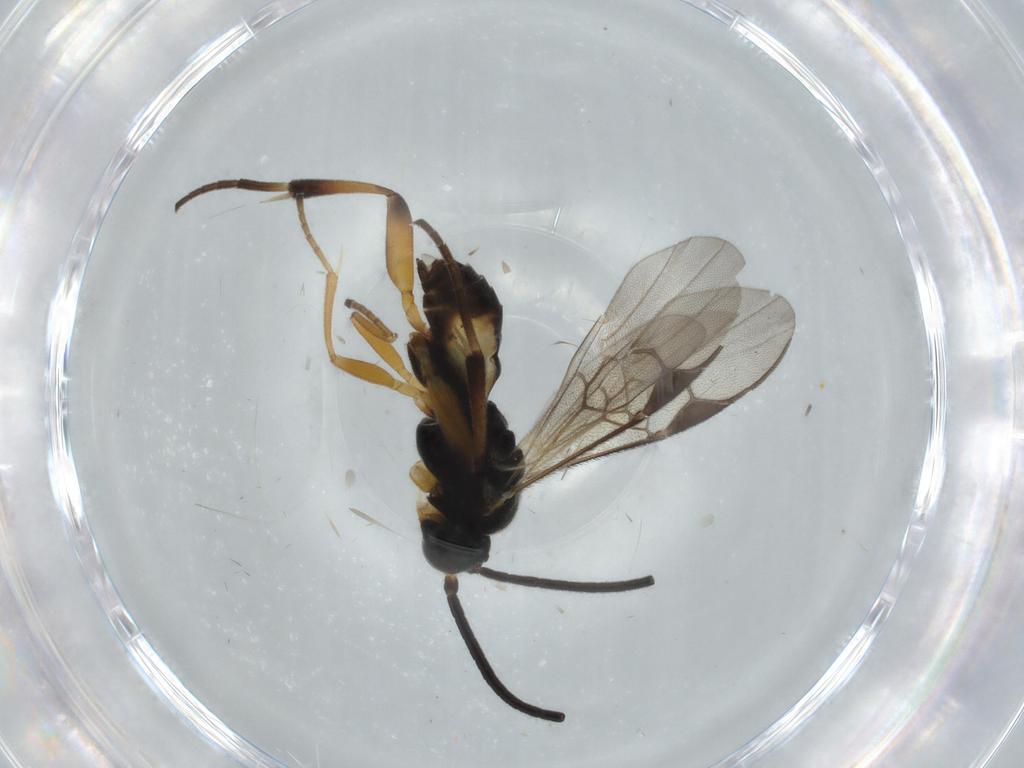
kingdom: Animalia
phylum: Arthropoda
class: Insecta
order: Hymenoptera
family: Braconidae
